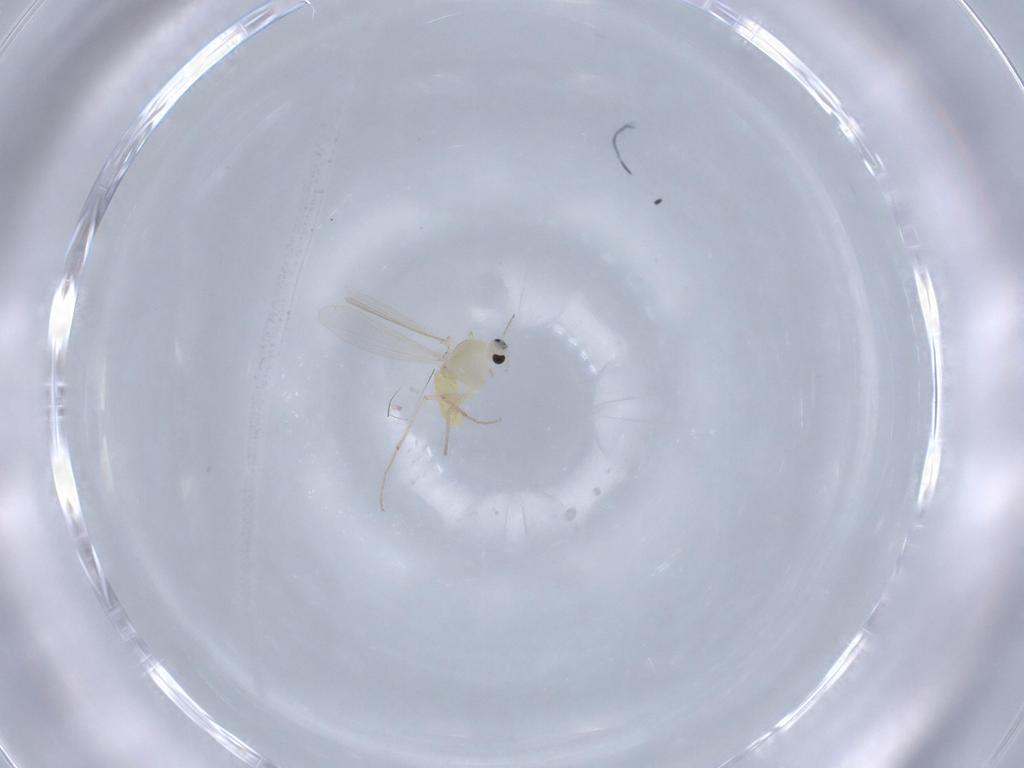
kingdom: Animalia
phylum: Arthropoda
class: Insecta
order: Diptera
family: Chironomidae
